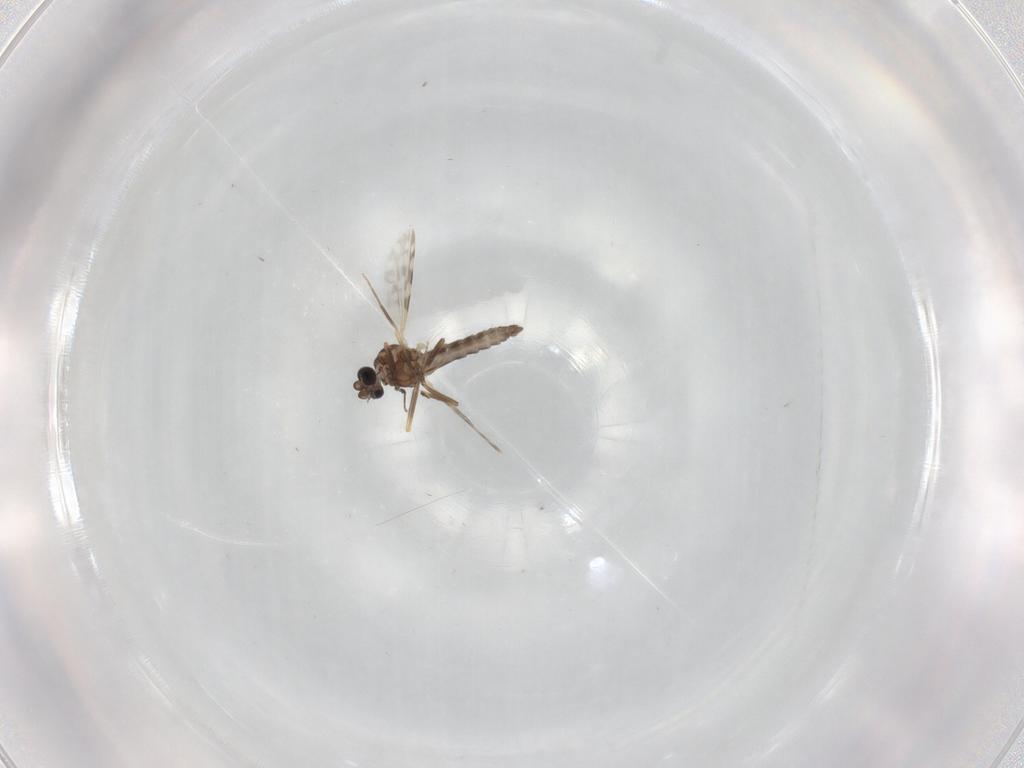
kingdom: Animalia
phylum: Arthropoda
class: Insecta
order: Diptera
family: Ceratopogonidae
